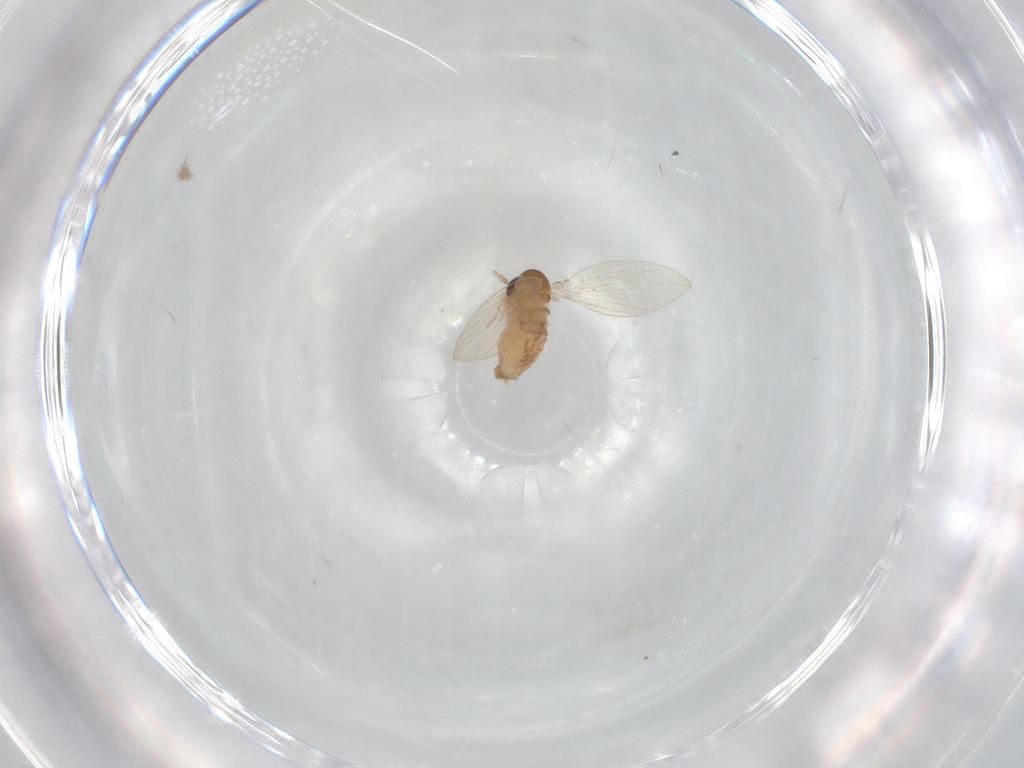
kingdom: Animalia
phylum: Arthropoda
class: Insecta
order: Diptera
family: Psychodidae
